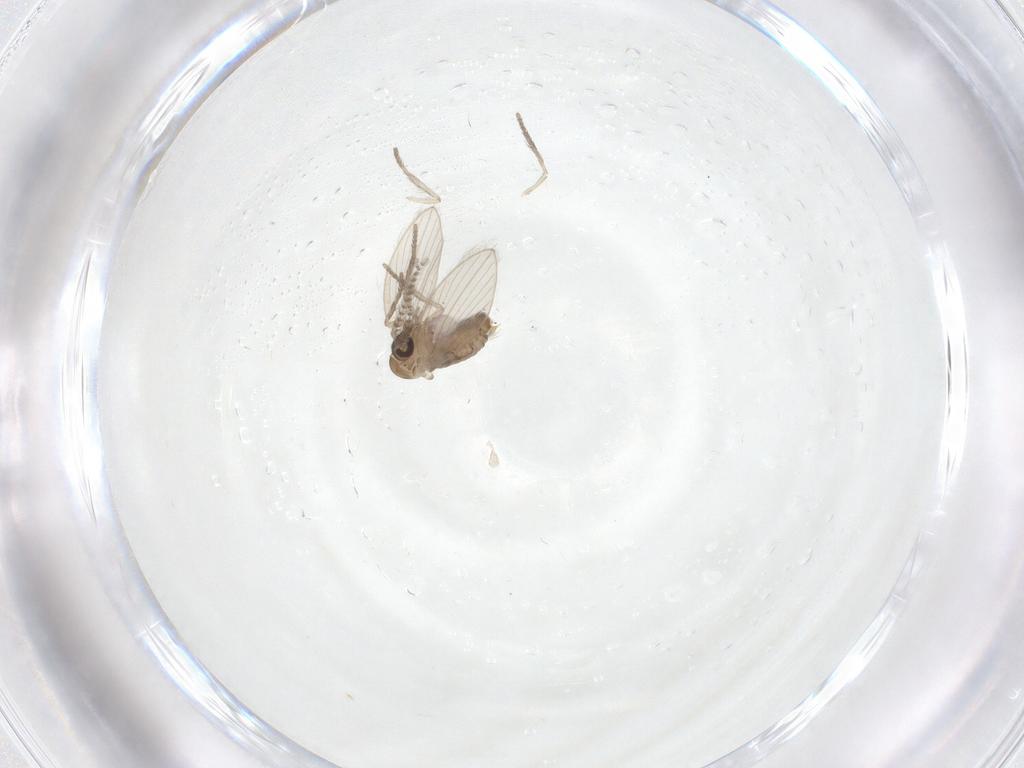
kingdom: Animalia
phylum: Arthropoda
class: Insecta
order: Diptera
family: Psychodidae
